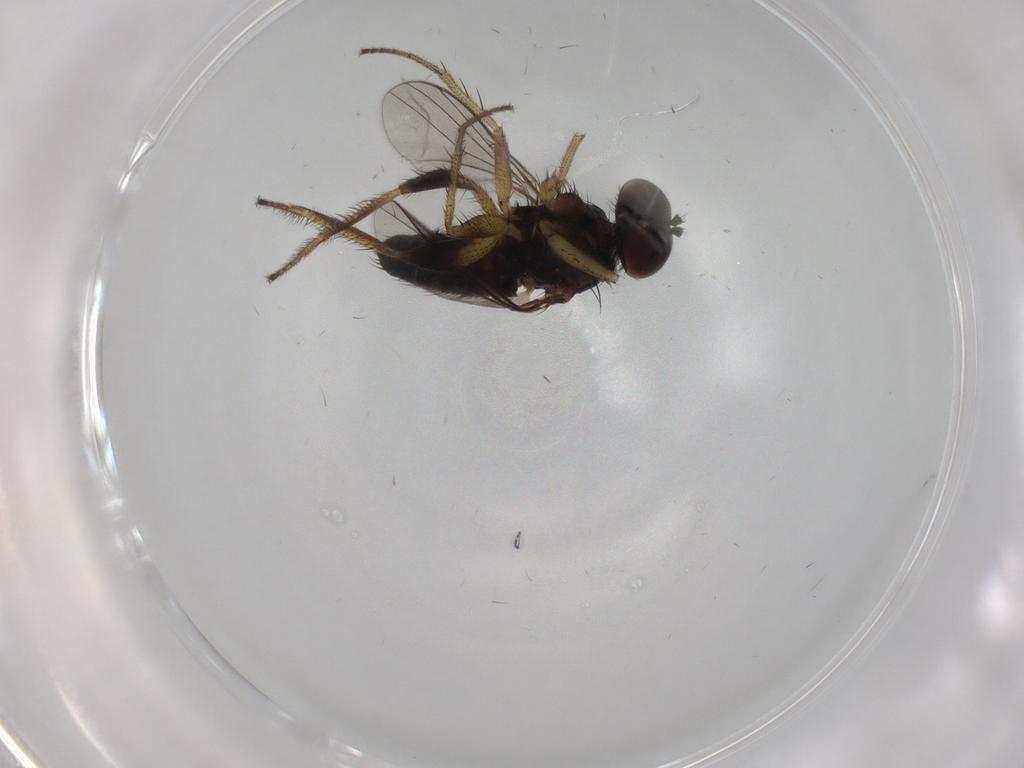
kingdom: Animalia
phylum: Arthropoda
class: Insecta
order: Diptera
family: Dolichopodidae
